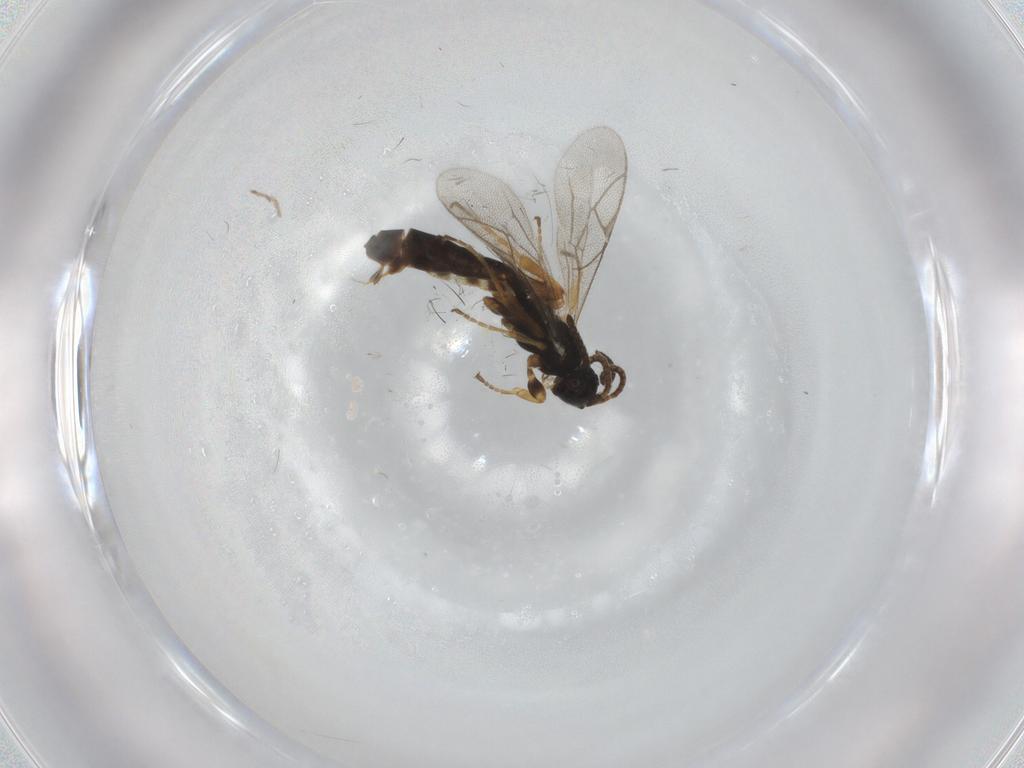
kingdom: Animalia
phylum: Arthropoda
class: Insecta
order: Hymenoptera
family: Ichneumonidae
